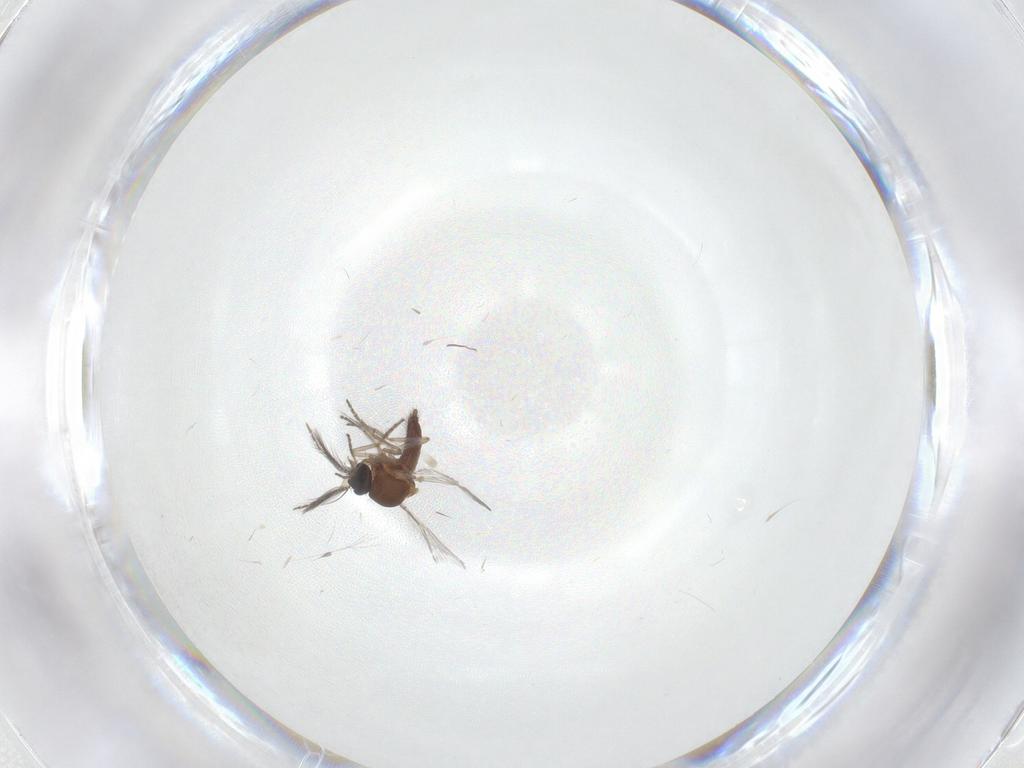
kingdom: Animalia
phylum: Arthropoda
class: Insecta
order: Diptera
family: Ceratopogonidae
